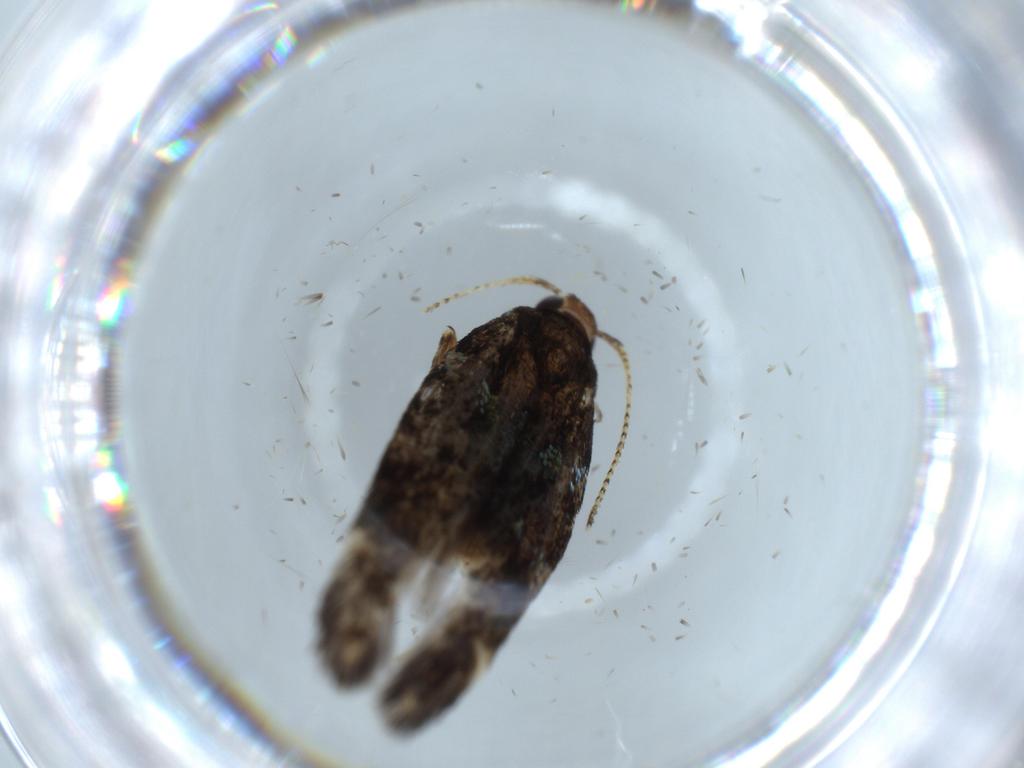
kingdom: Animalia
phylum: Arthropoda
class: Insecta
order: Lepidoptera
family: Cosmopterigidae
